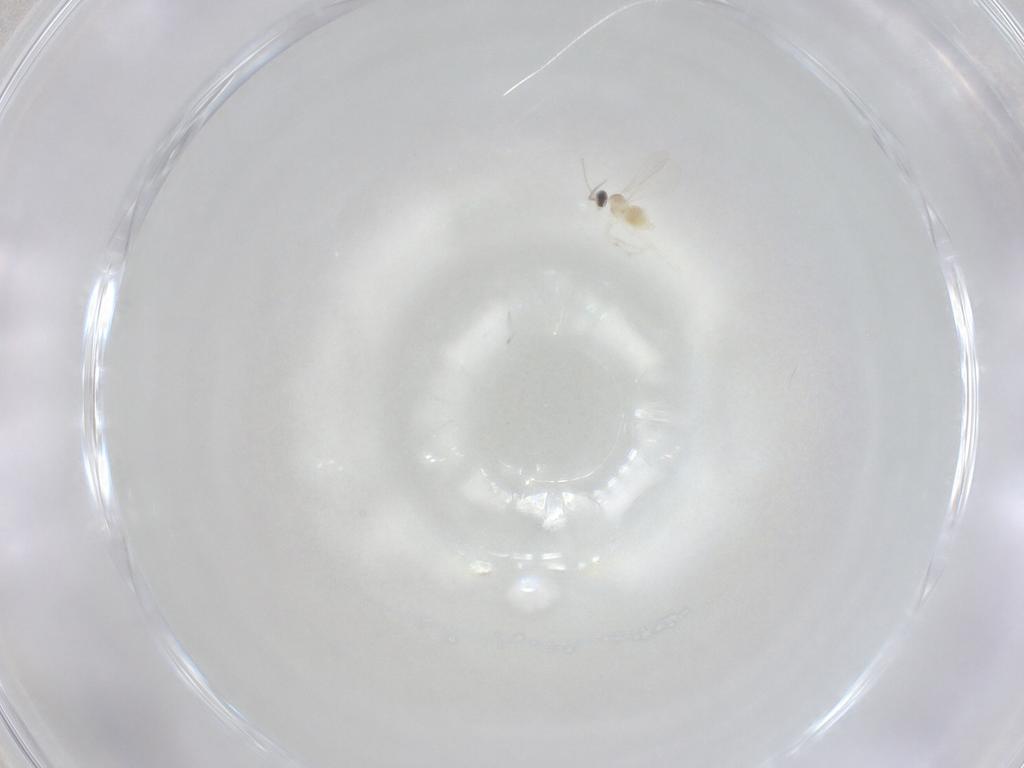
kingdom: Animalia
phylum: Arthropoda
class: Insecta
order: Diptera
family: Cecidomyiidae
